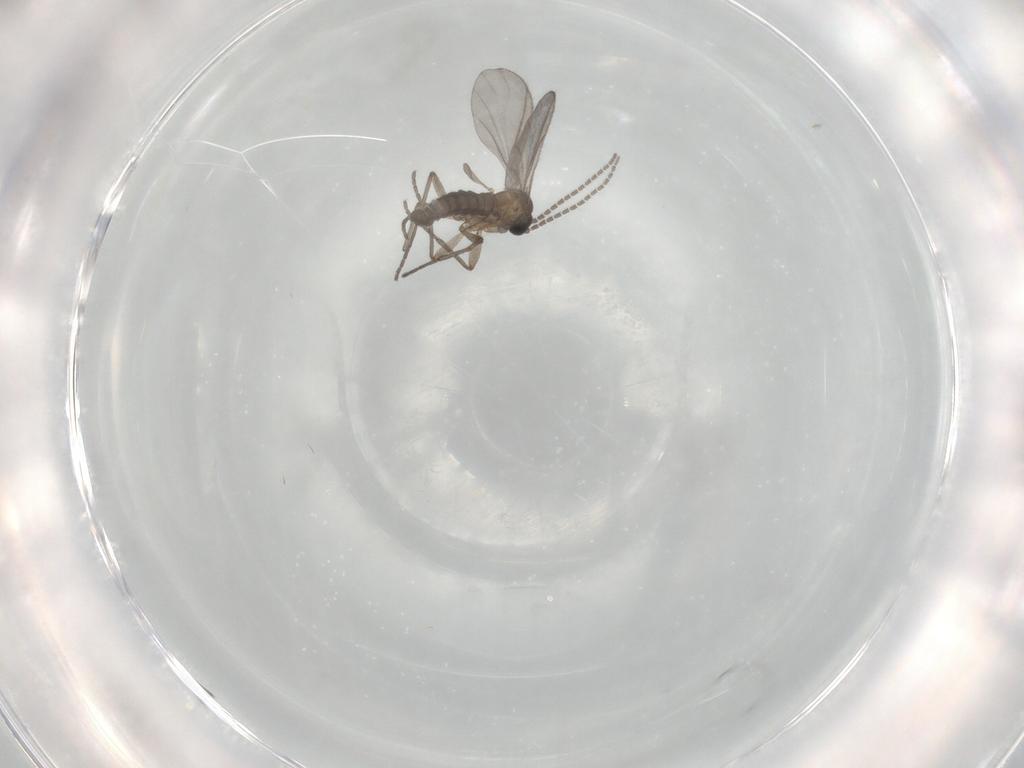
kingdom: Animalia
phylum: Arthropoda
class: Insecta
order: Diptera
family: Sciaridae
